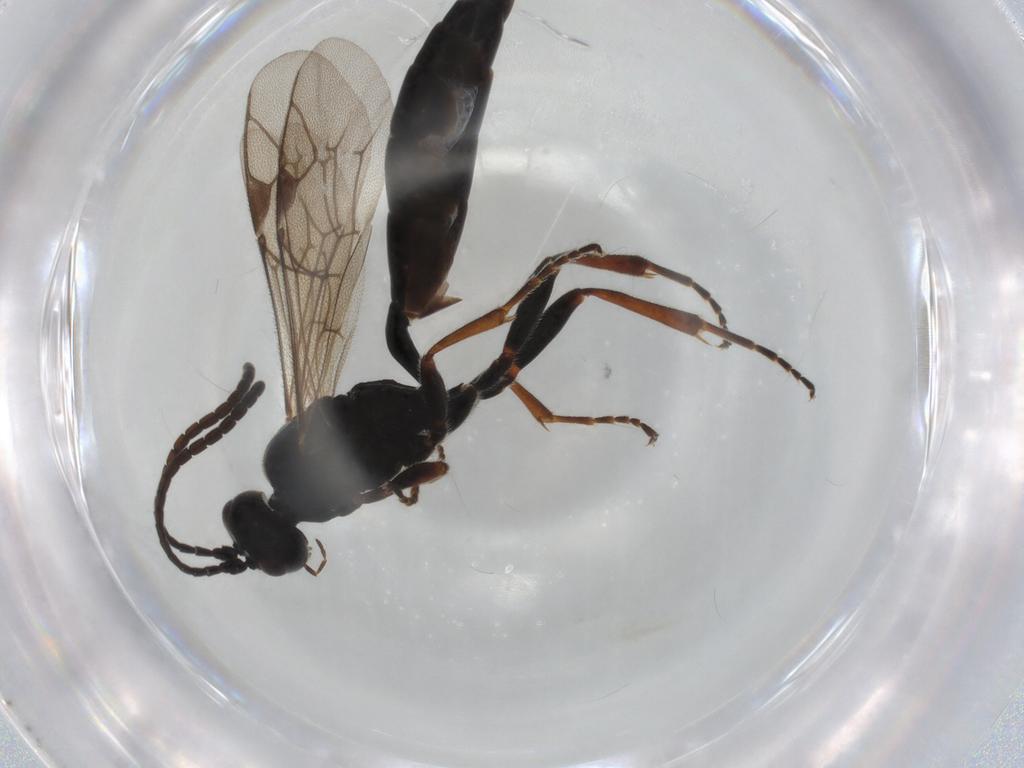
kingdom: Animalia
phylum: Arthropoda
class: Insecta
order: Hymenoptera
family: Ichneumonidae
